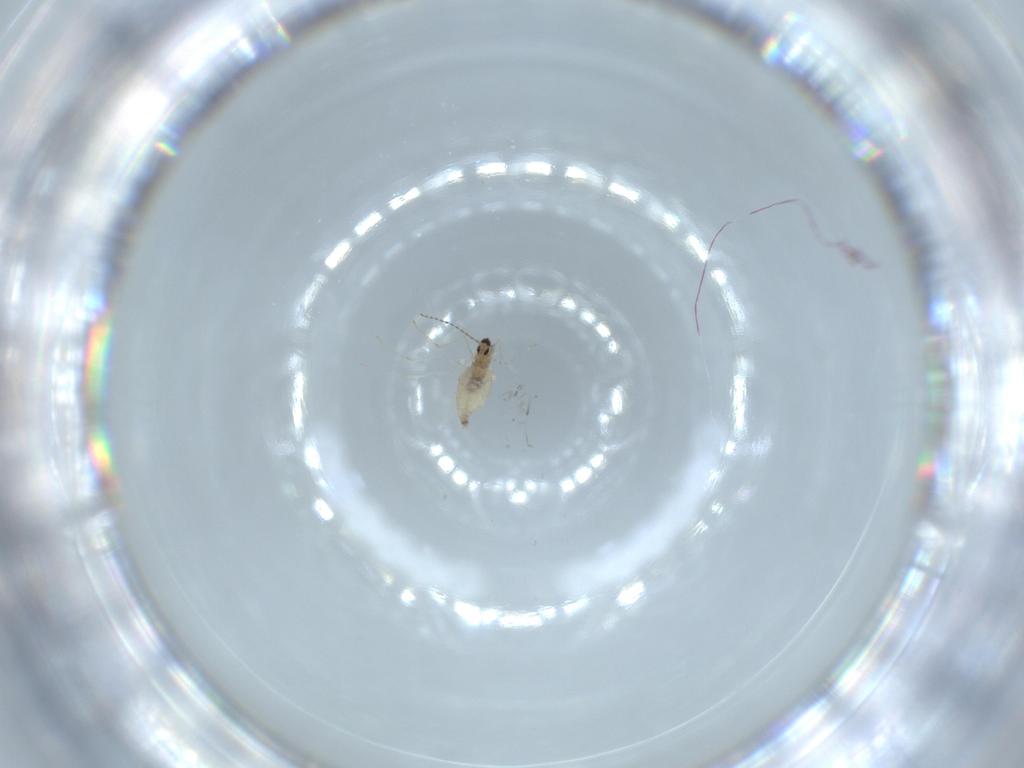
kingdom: Animalia
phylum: Arthropoda
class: Insecta
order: Diptera
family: Cecidomyiidae
